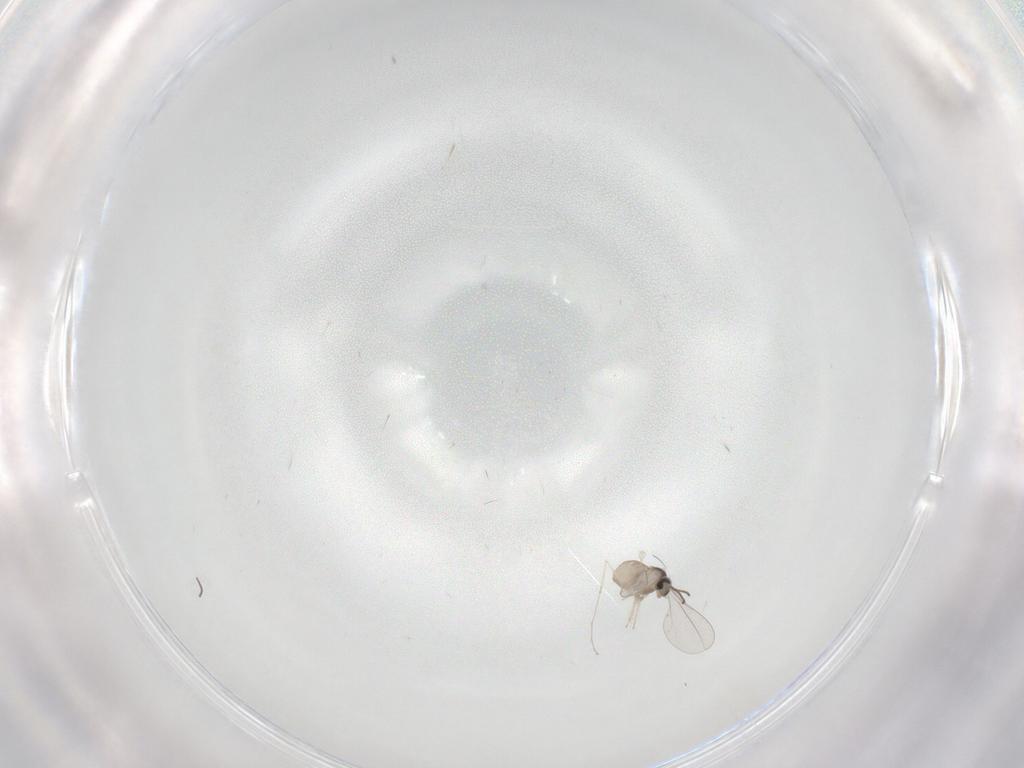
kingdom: Animalia
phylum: Arthropoda
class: Insecta
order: Diptera
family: Cecidomyiidae
